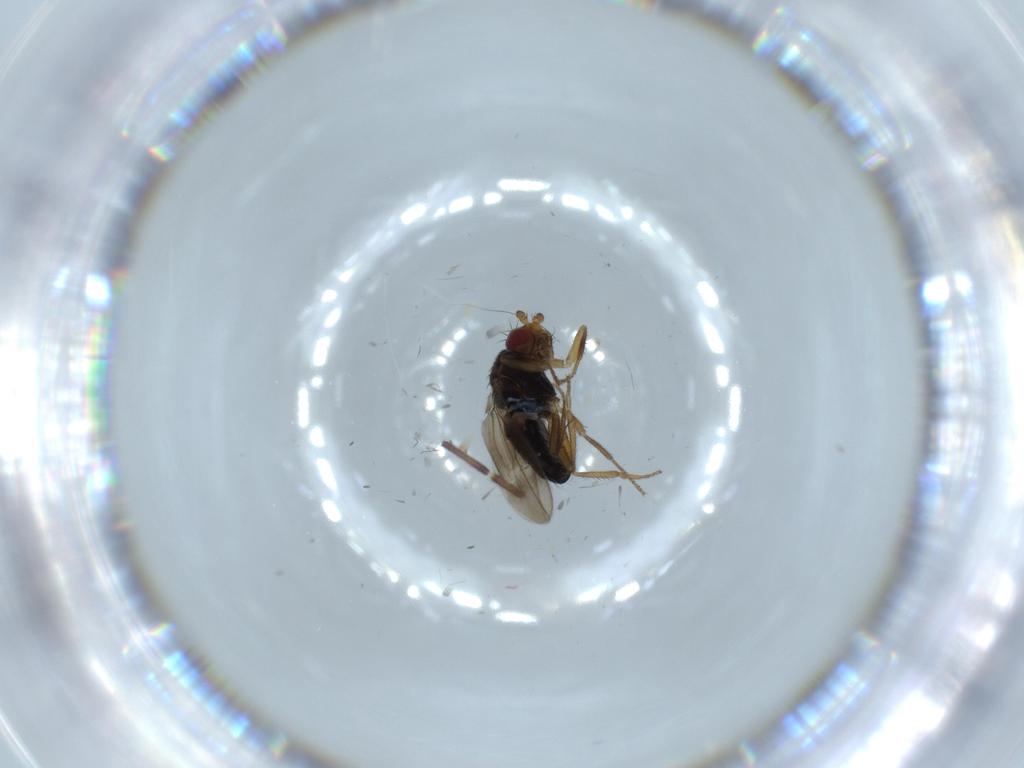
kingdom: Animalia
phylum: Arthropoda
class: Insecta
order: Diptera
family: Sphaeroceridae
